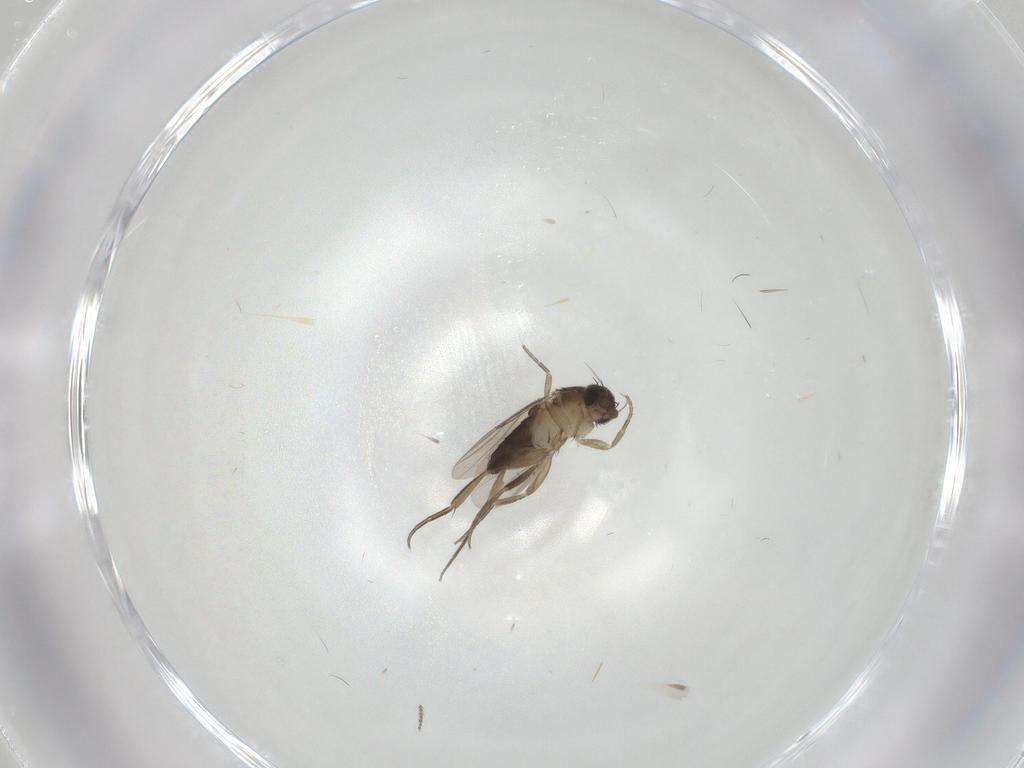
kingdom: Animalia
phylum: Arthropoda
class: Insecta
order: Diptera
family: Phoridae
